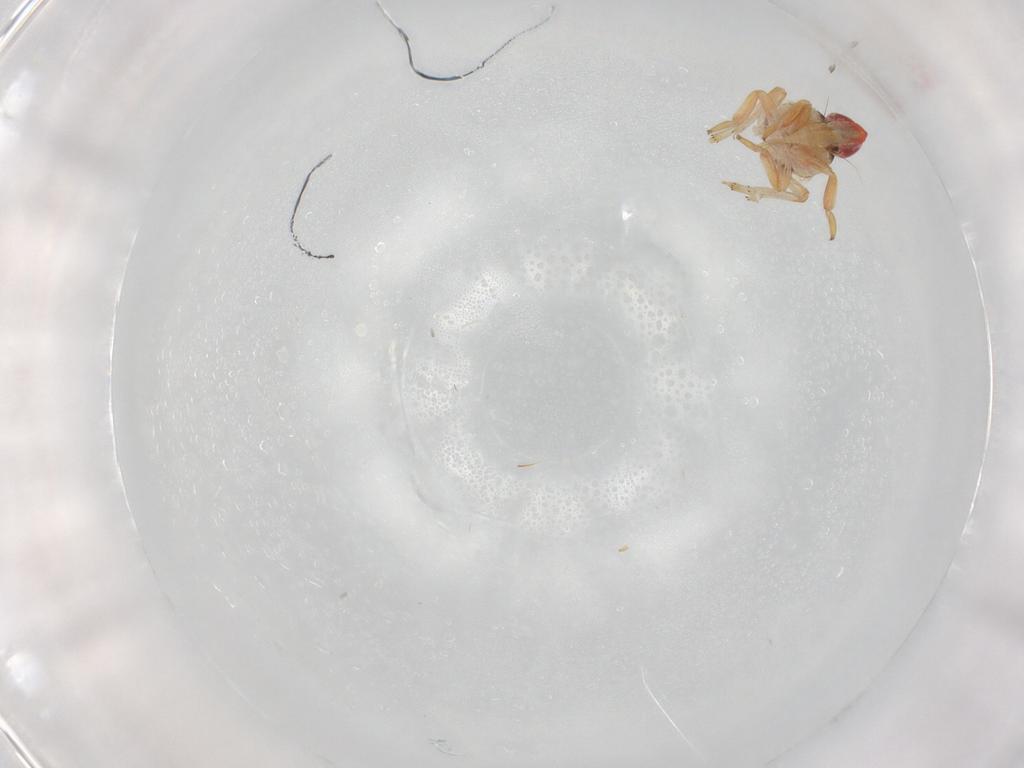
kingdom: Animalia
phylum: Arthropoda
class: Insecta
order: Hemiptera
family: Issidae
